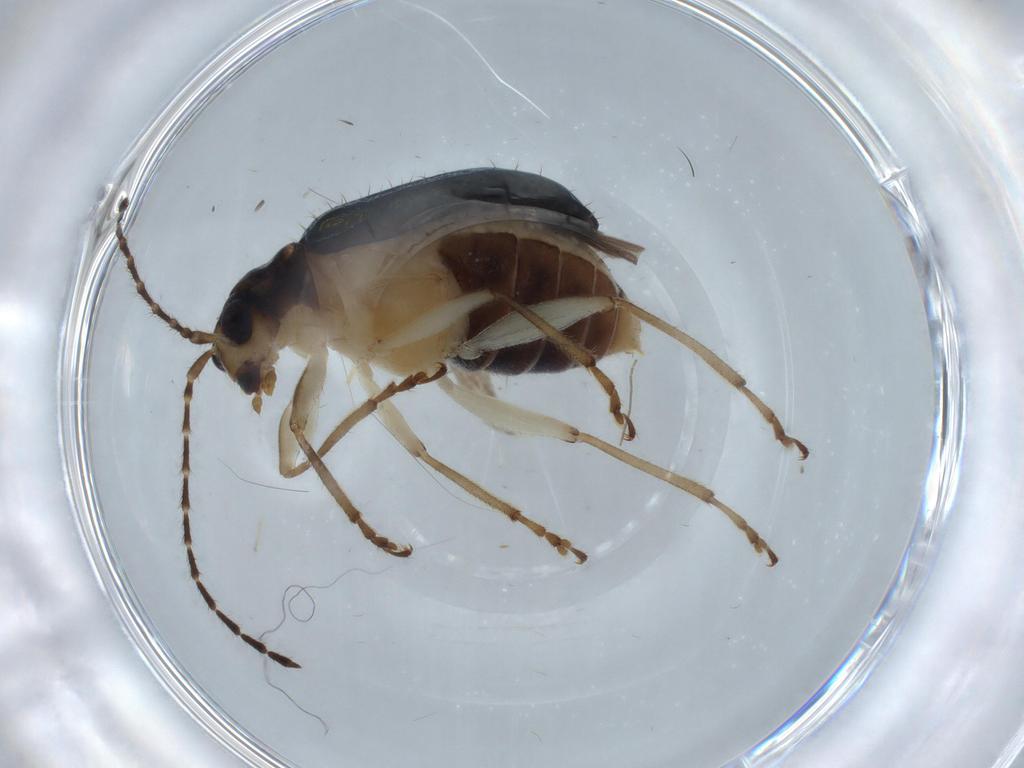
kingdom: Animalia
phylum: Arthropoda
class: Insecta
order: Coleoptera
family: Chrysomelidae
